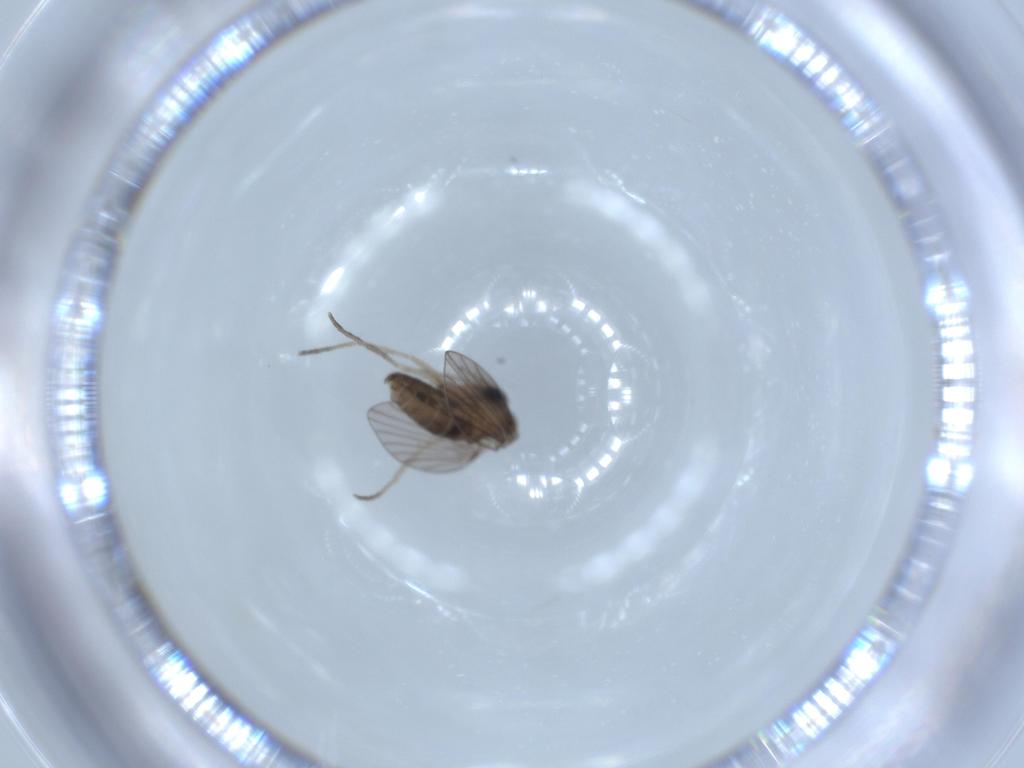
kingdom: Animalia
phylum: Arthropoda
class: Insecta
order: Diptera
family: Psychodidae
